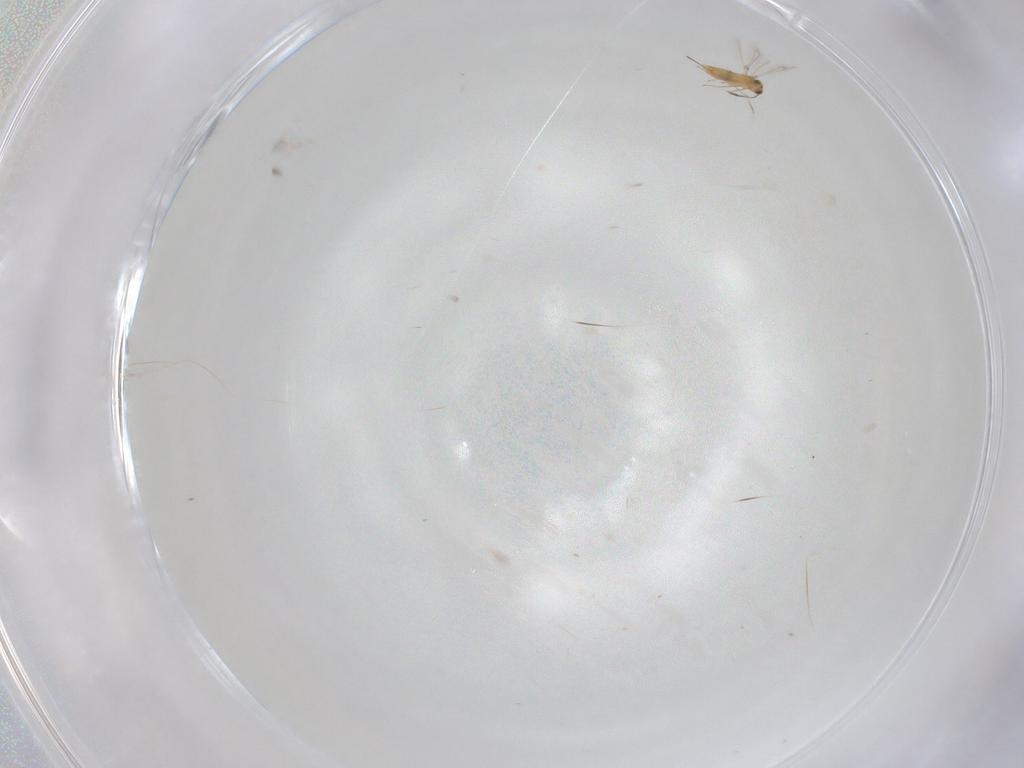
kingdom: Animalia
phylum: Arthropoda
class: Insecta
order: Hymenoptera
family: Mymaridae
